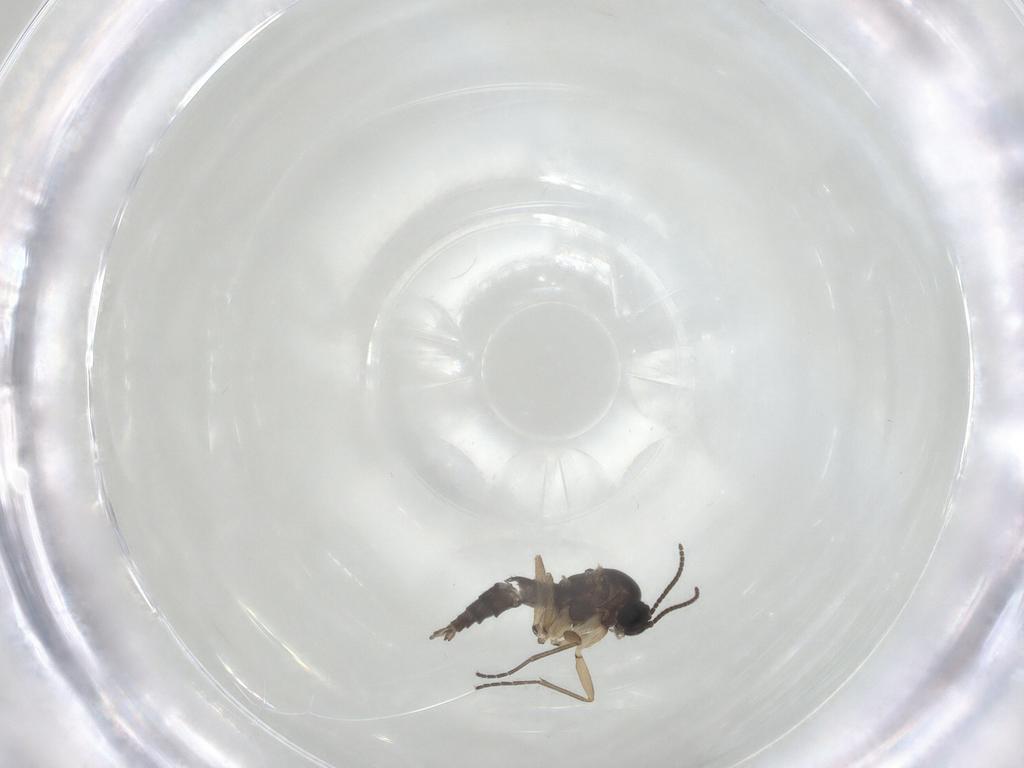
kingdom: Animalia
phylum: Arthropoda
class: Insecta
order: Diptera
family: Sciaridae
